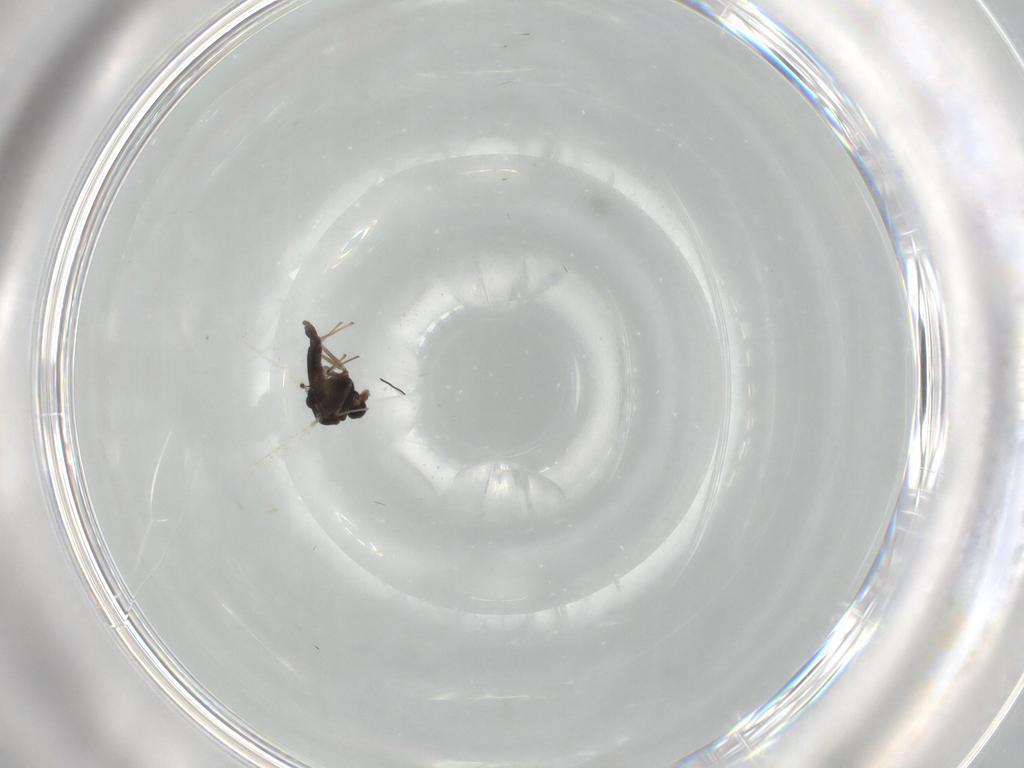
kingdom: Animalia
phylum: Arthropoda
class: Insecta
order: Diptera
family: Chironomidae
